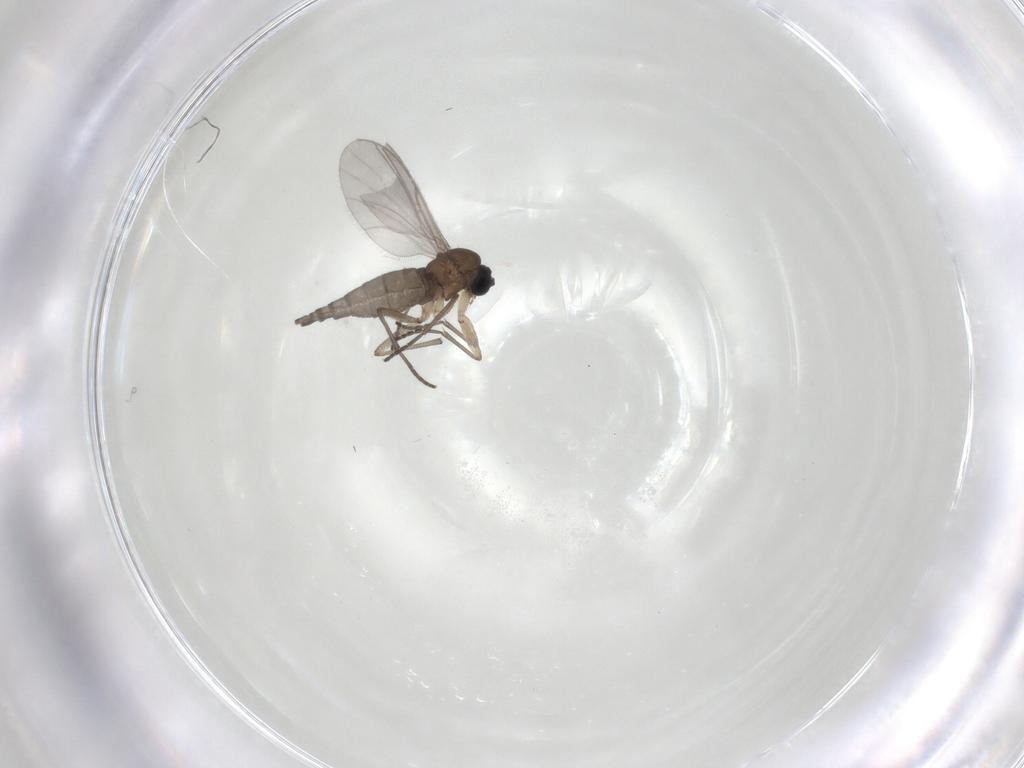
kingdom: Animalia
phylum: Arthropoda
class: Insecta
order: Diptera
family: Sciaridae
